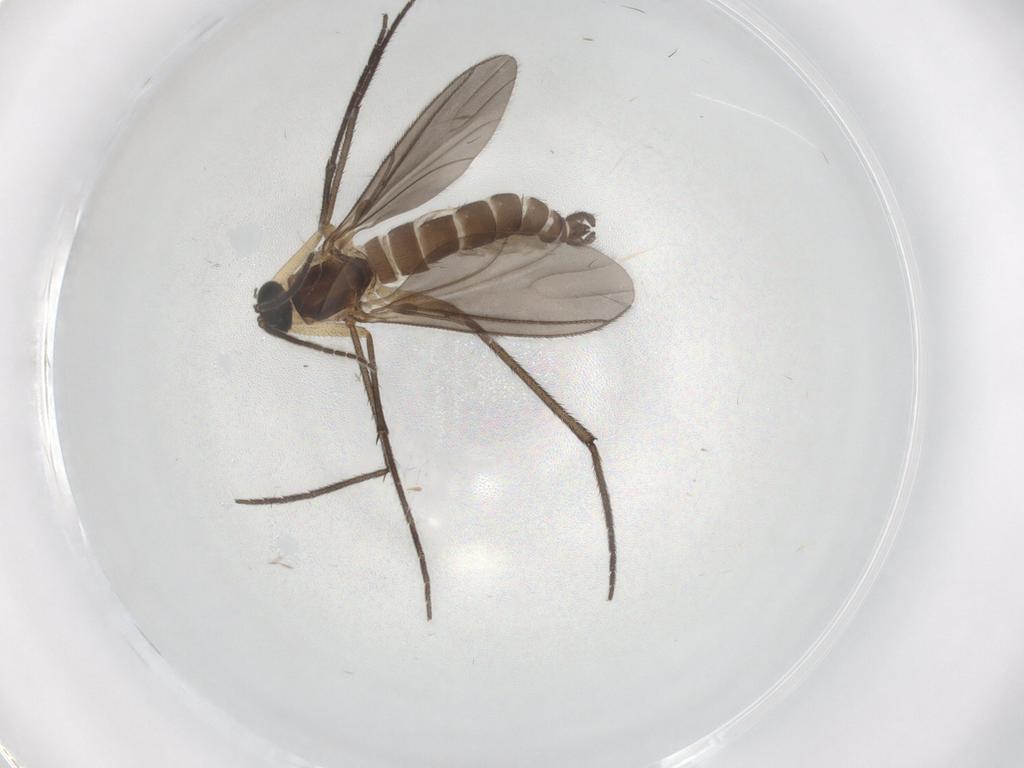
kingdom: Animalia
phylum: Arthropoda
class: Insecta
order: Diptera
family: Sciaridae
